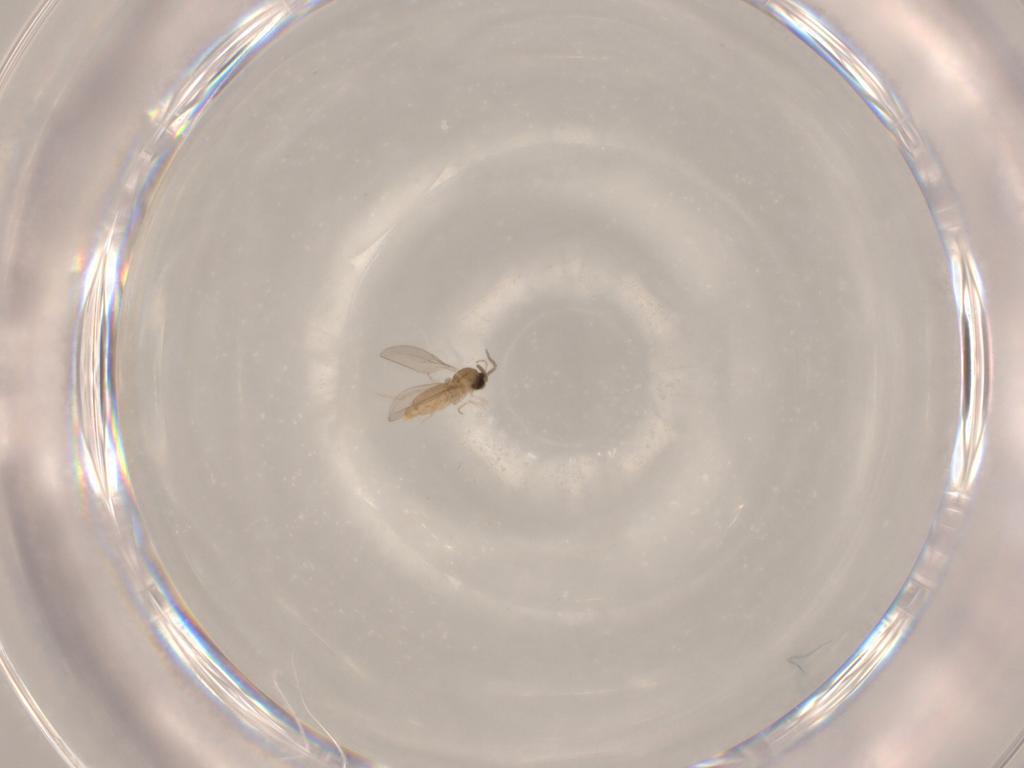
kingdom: Animalia
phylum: Arthropoda
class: Insecta
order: Diptera
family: Cecidomyiidae
